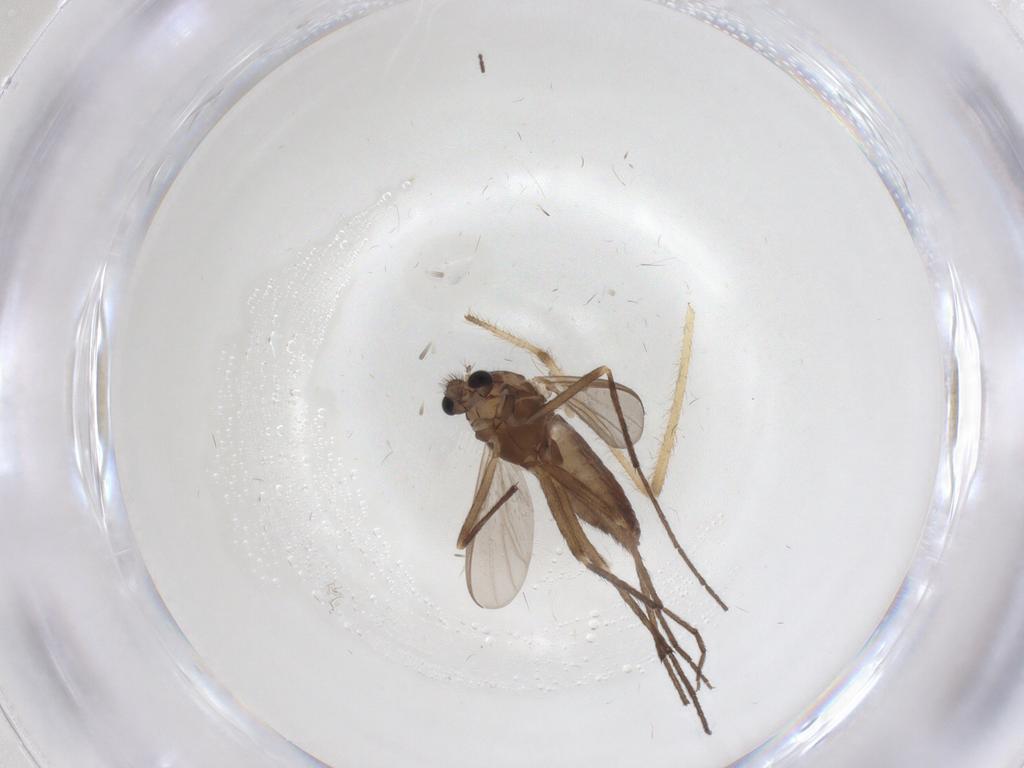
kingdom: Animalia
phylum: Arthropoda
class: Insecta
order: Diptera
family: Chironomidae
